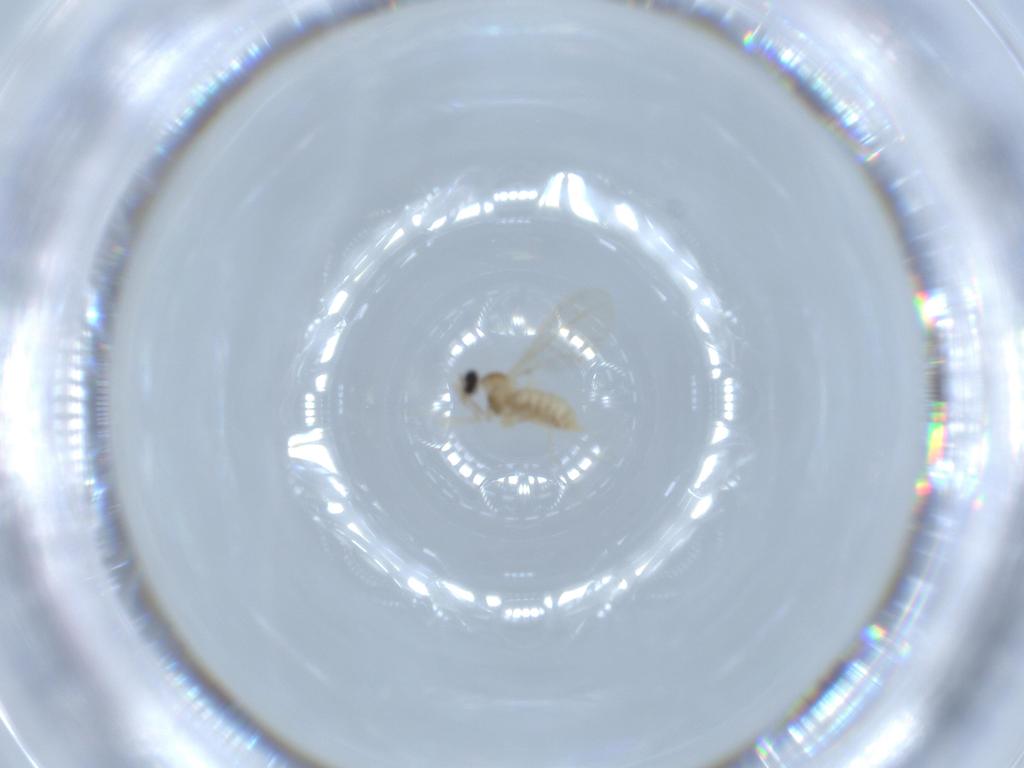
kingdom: Animalia
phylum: Arthropoda
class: Insecta
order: Diptera
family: Cecidomyiidae
